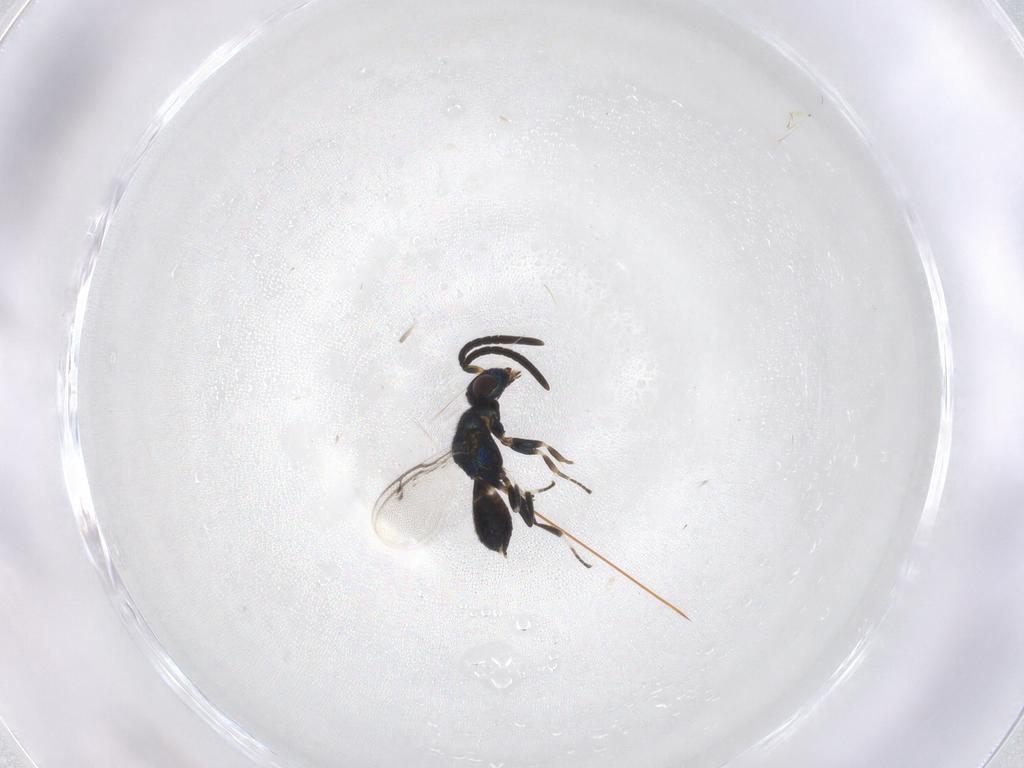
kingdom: Animalia
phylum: Arthropoda
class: Insecta
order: Hymenoptera
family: Eupelmidae
